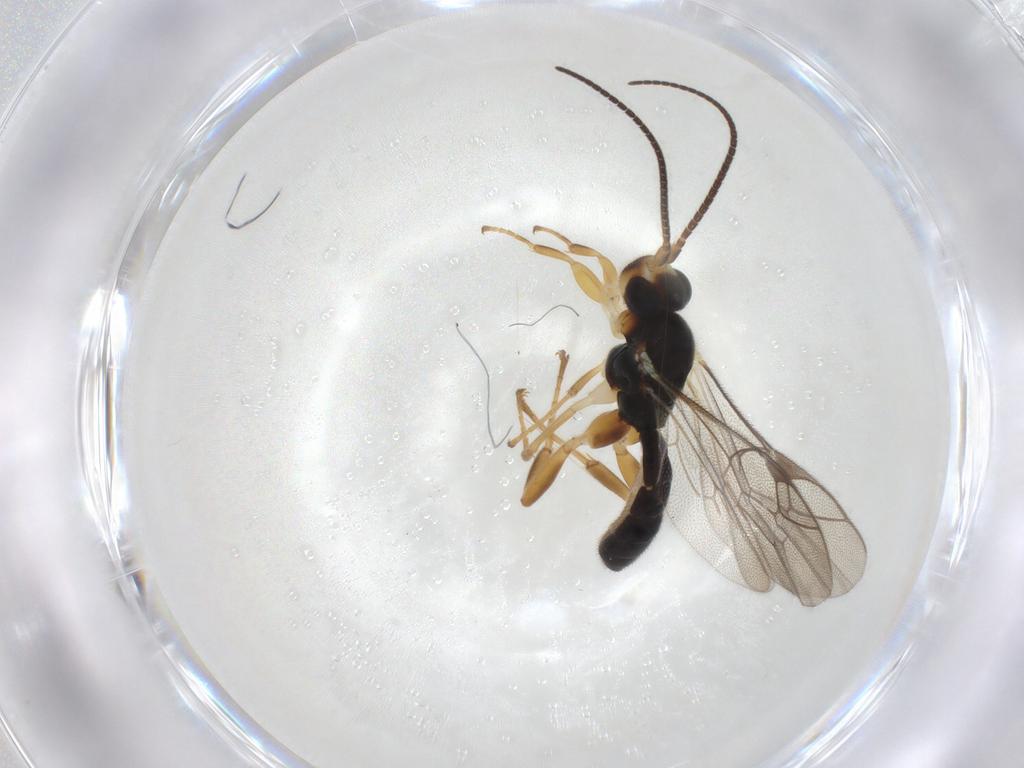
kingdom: Animalia
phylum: Arthropoda
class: Insecta
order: Hymenoptera
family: Ichneumonidae
